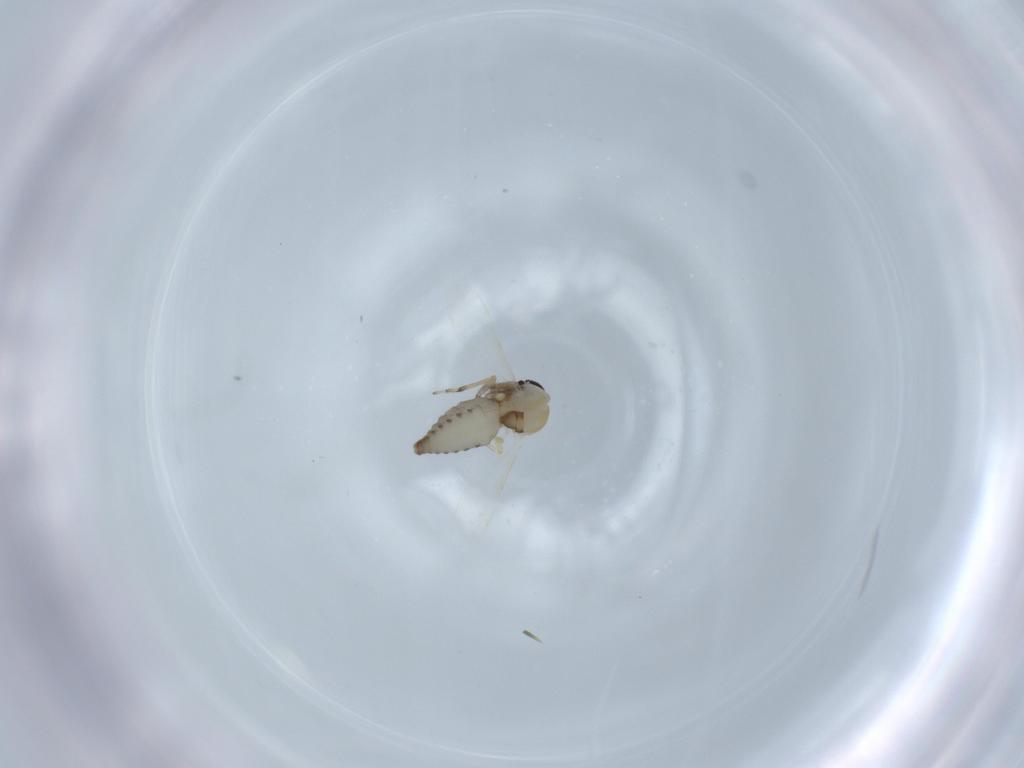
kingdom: Animalia
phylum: Arthropoda
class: Insecta
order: Diptera
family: Ceratopogonidae
